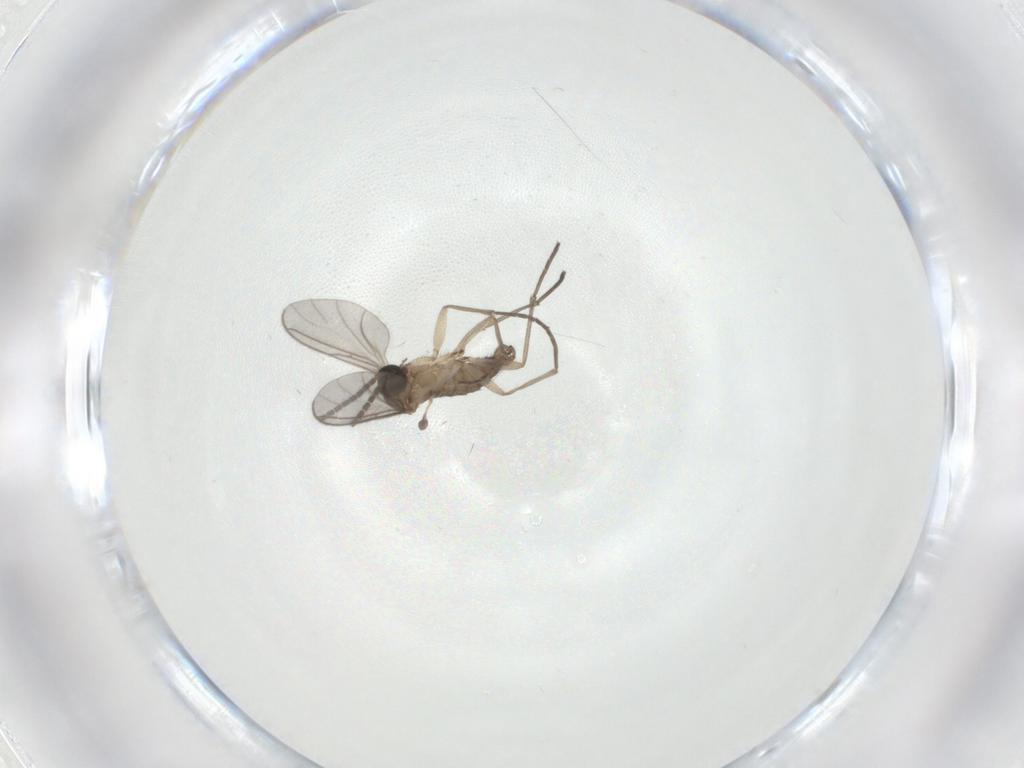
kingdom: Animalia
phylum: Arthropoda
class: Insecta
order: Diptera
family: Sciaridae
